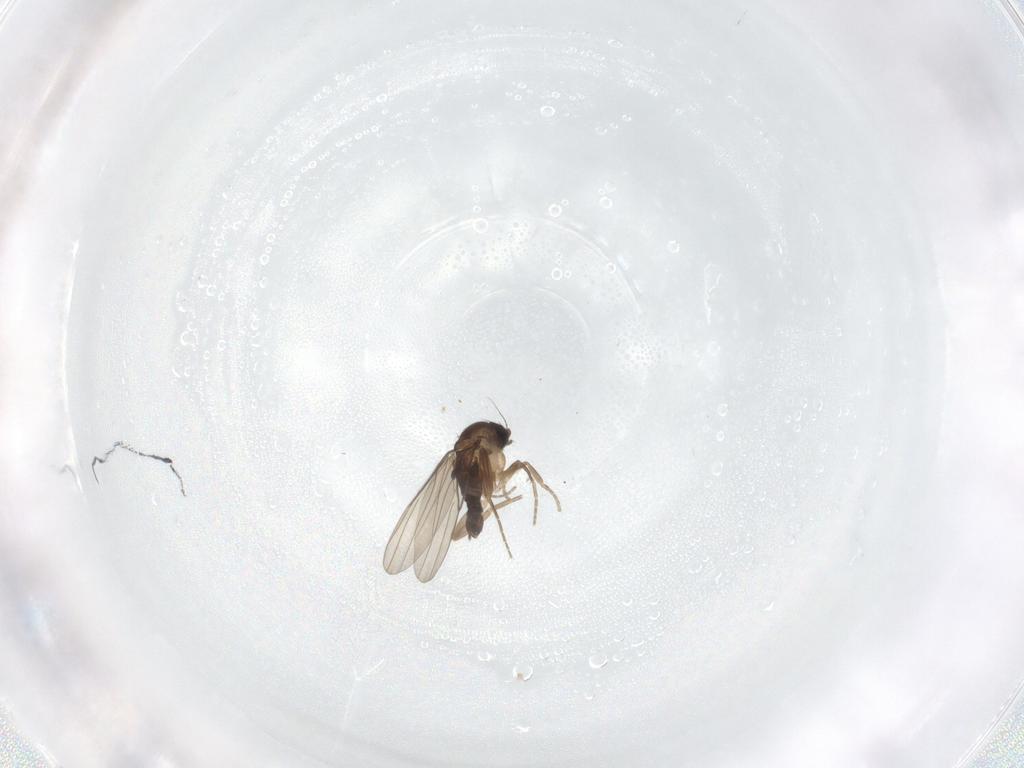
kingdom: Animalia
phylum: Arthropoda
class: Insecta
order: Diptera
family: Phoridae
